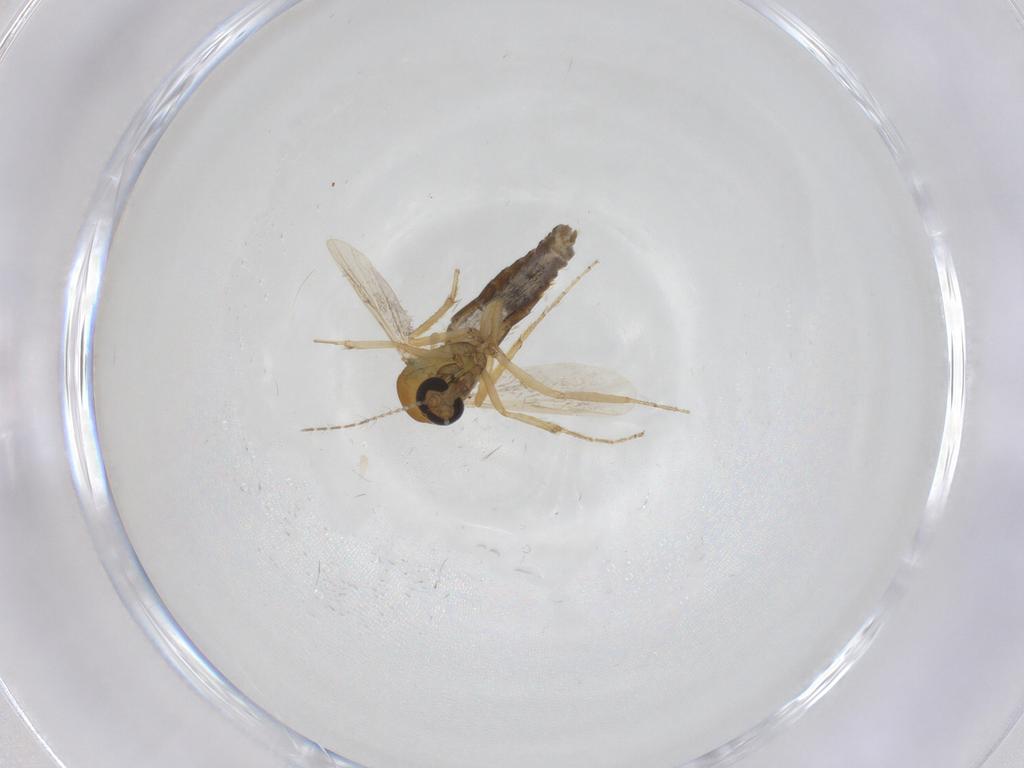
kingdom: Animalia
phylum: Arthropoda
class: Insecta
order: Diptera
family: Ceratopogonidae
